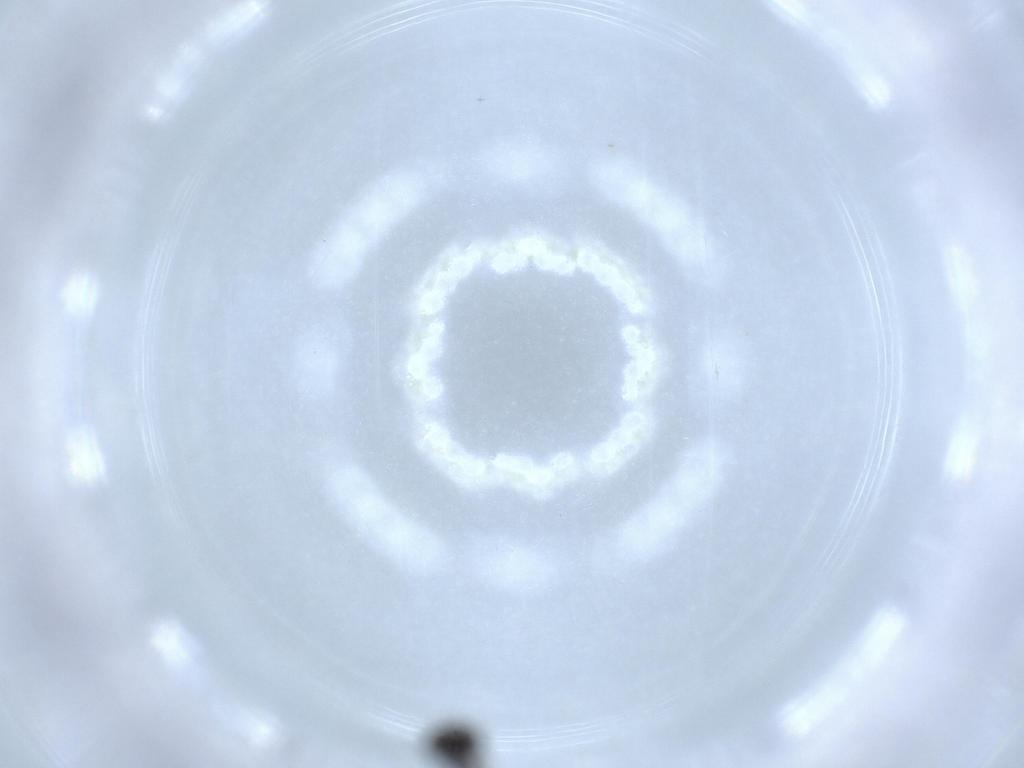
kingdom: Animalia
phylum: Arthropoda
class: Insecta
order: Diptera
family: Ceratopogonidae
